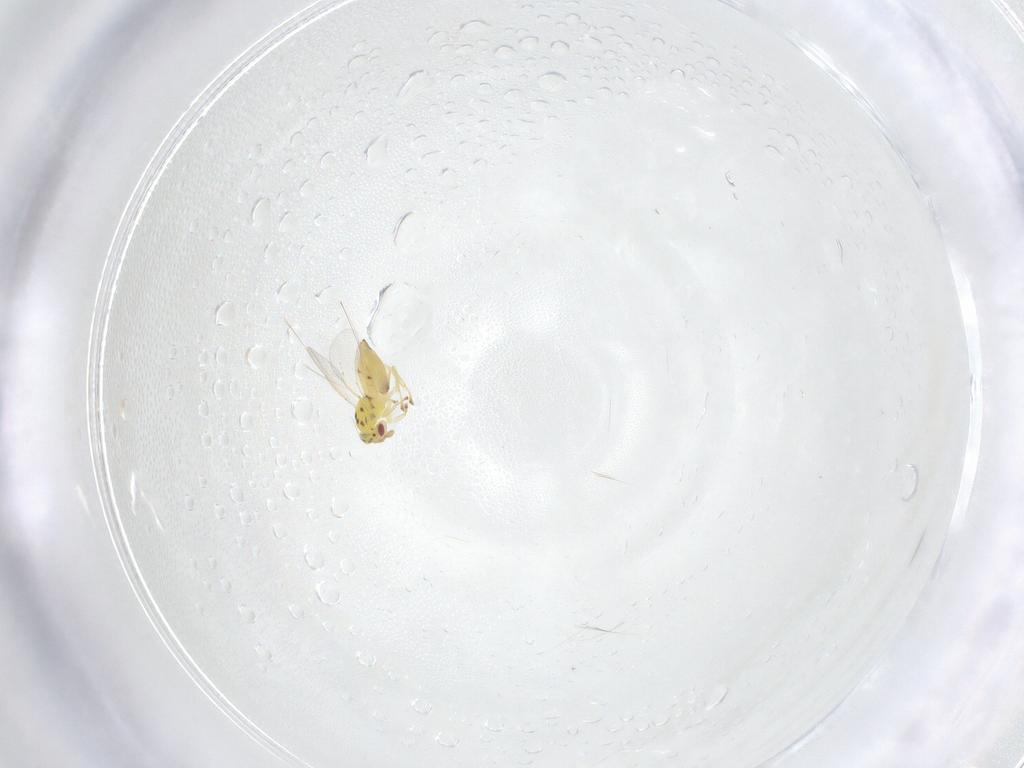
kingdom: Animalia
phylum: Arthropoda
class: Insecta
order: Hymenoptera
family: Eulophidae
